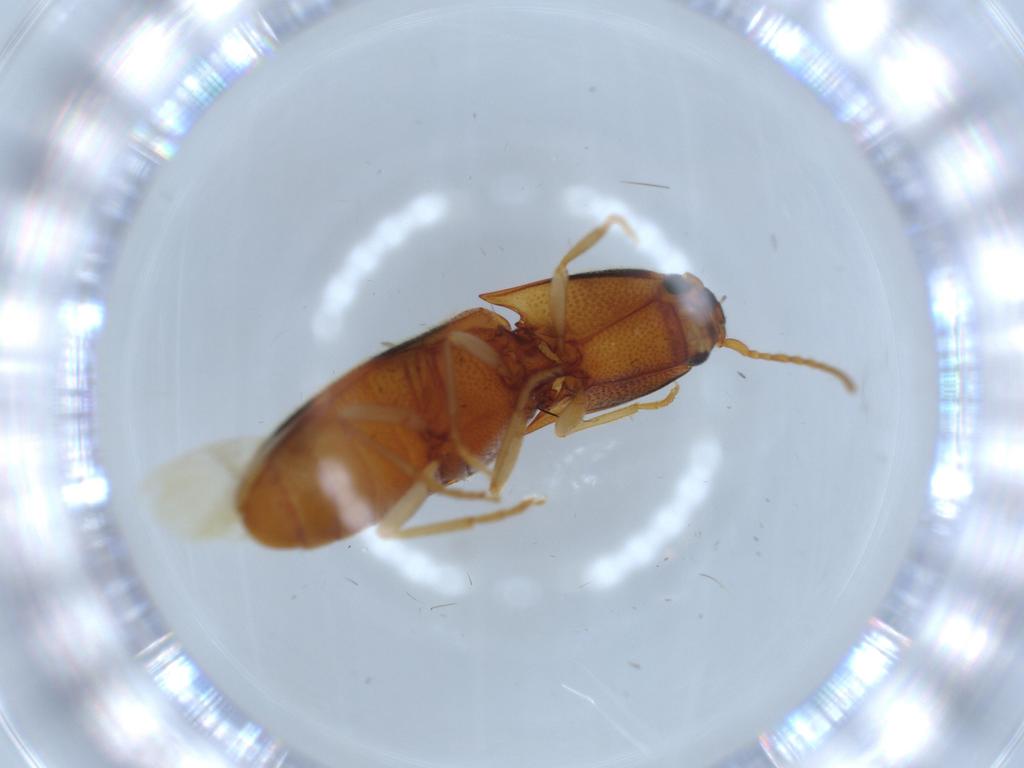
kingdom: Animalia
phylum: Arthropoda
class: Insecta
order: Coleoptera
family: Elateridae
